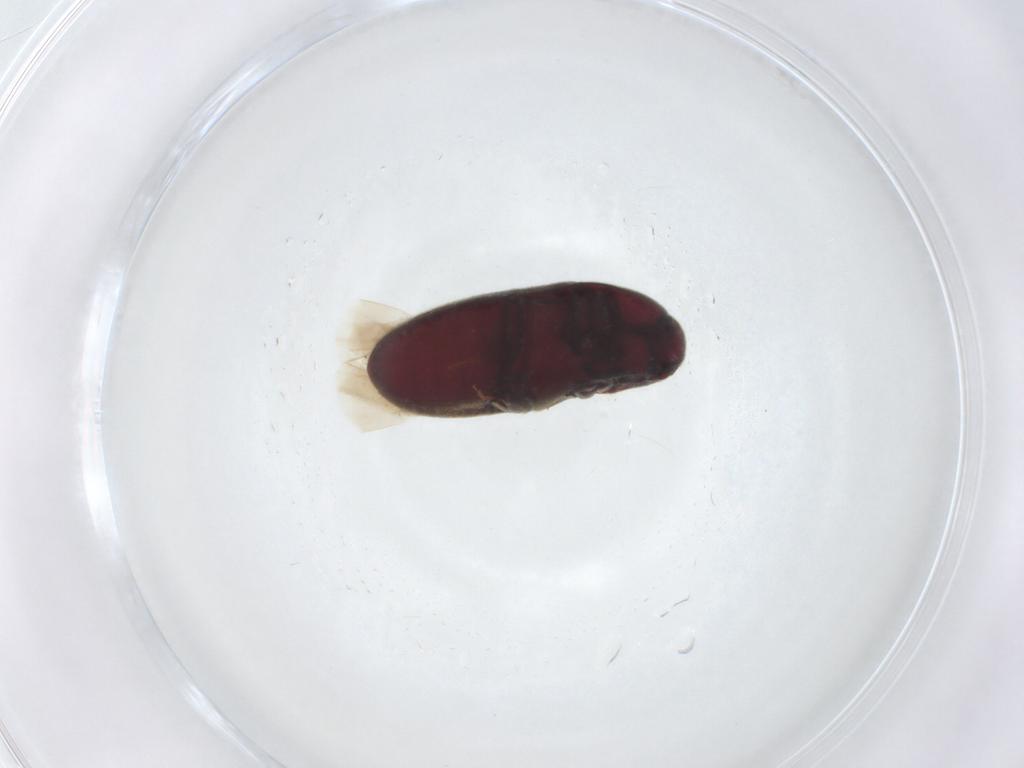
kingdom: Animalia
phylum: Arthropoda
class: Insecta
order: Coleoptera
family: Throscidae
